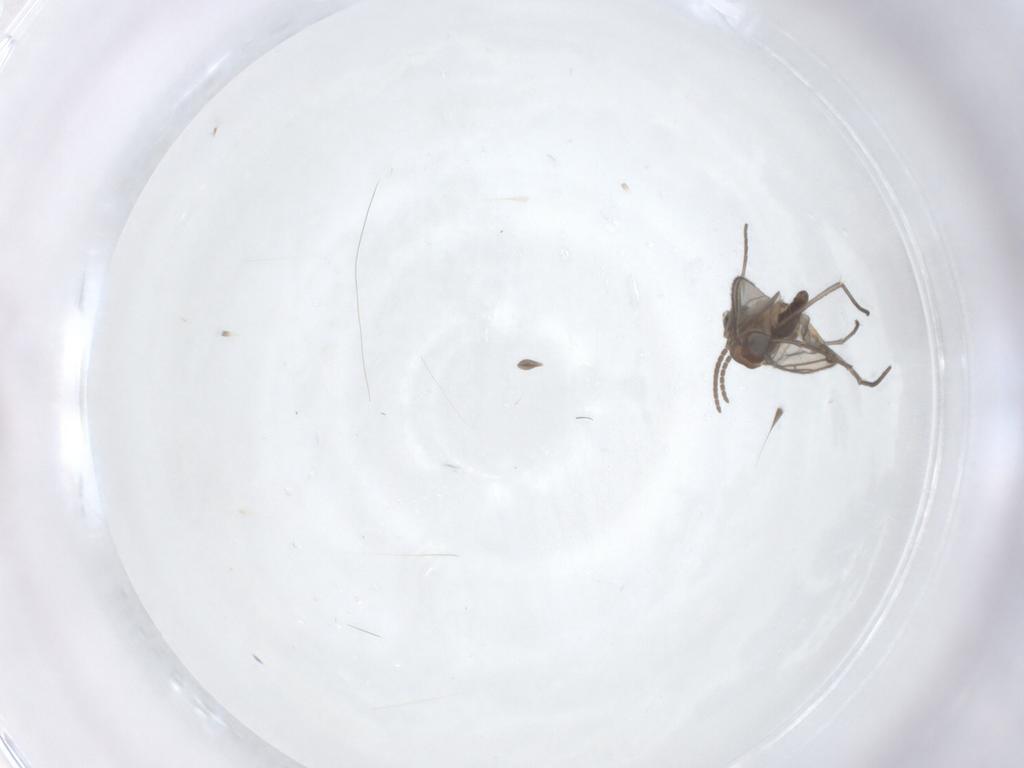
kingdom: Animalia
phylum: Arthropoda
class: Insecta
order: Diptera
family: Sciaridae
